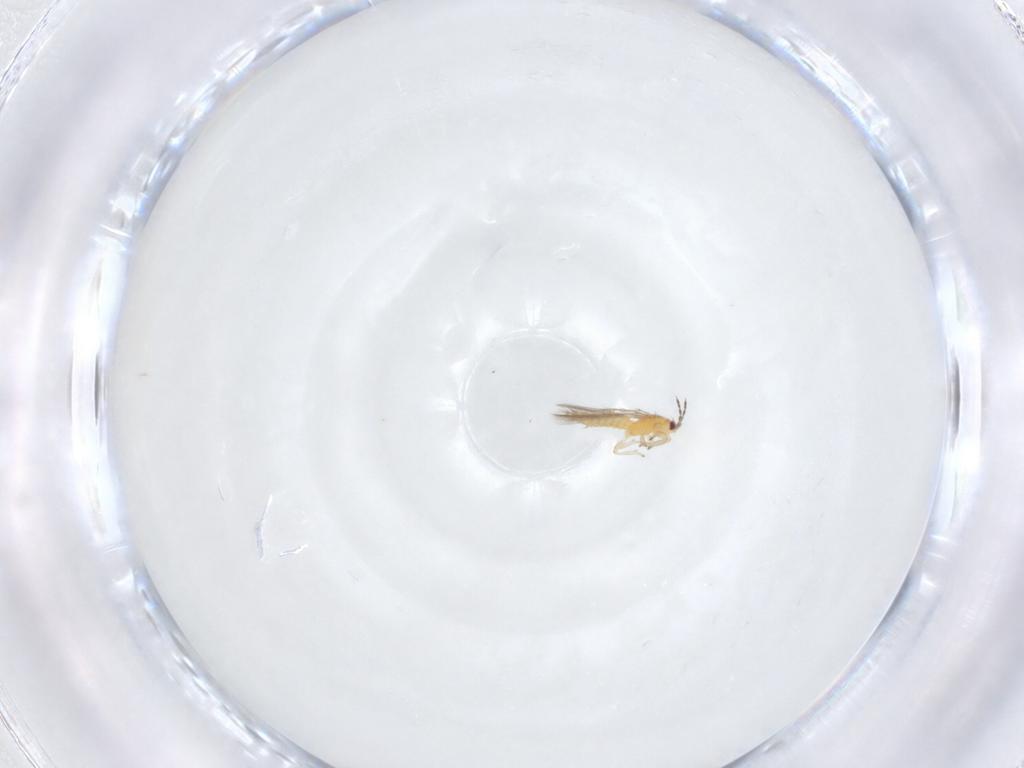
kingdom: Animalia
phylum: Arthropoda
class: Insecta
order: Thysanoptera
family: Thripidae
